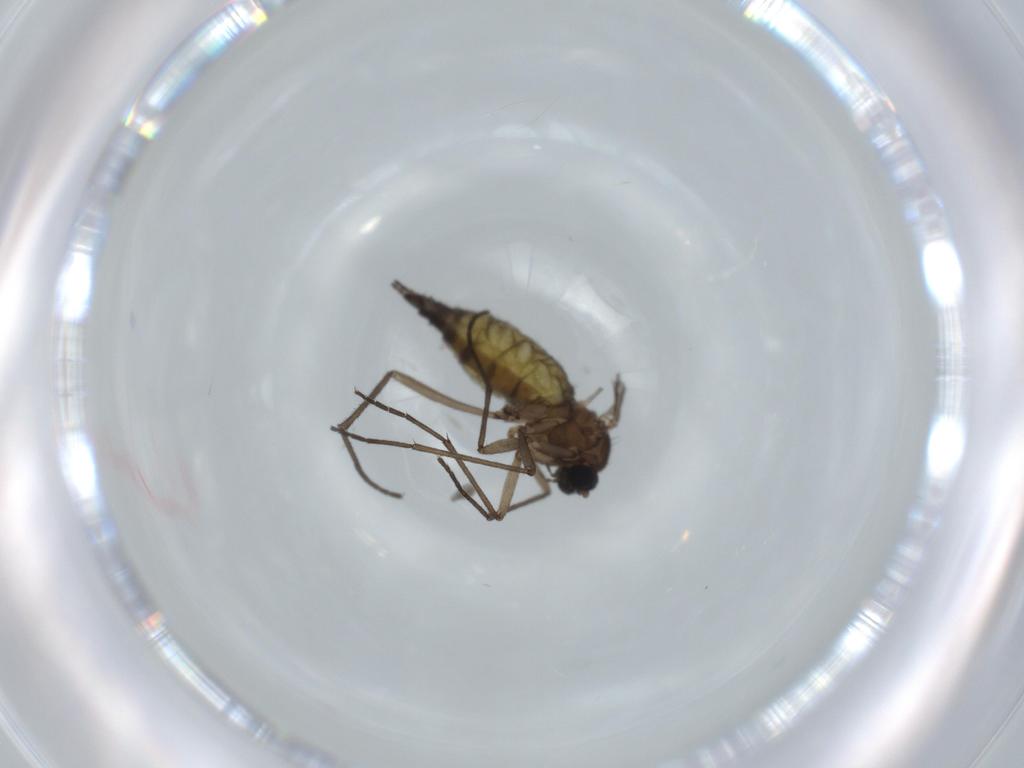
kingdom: Animalia
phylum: Arthropoda
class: Insecta
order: Diptera
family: Sciaridae
